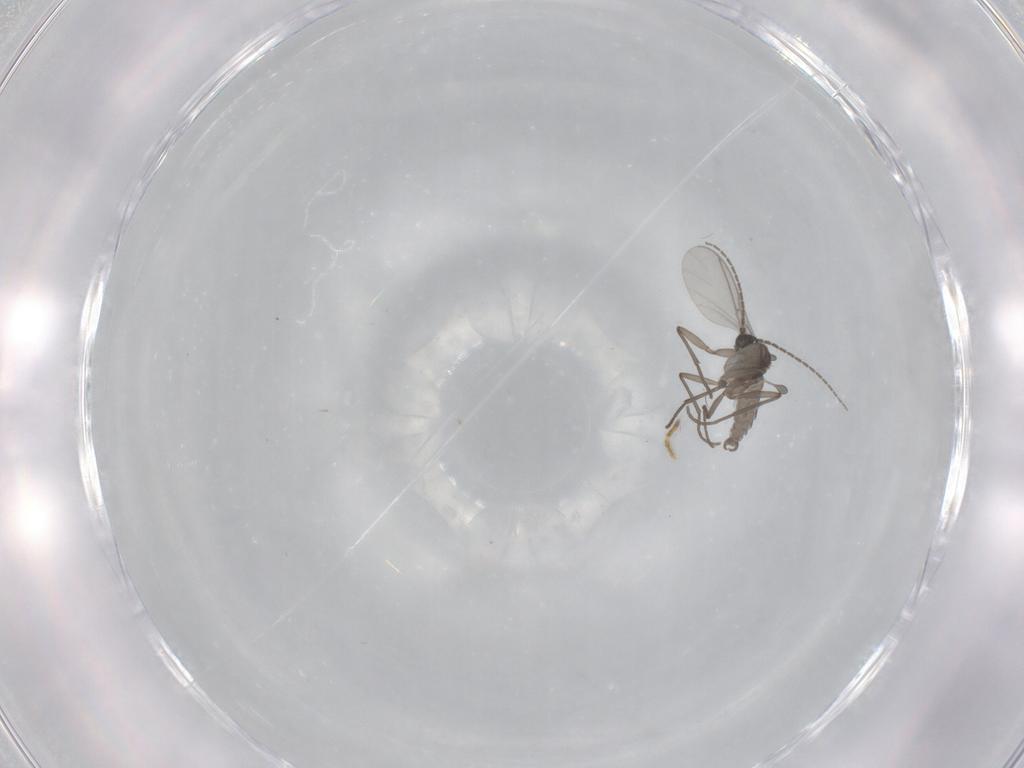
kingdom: Animalia
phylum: Arthropoda
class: Insecta
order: Diptera
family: Sciaridae
